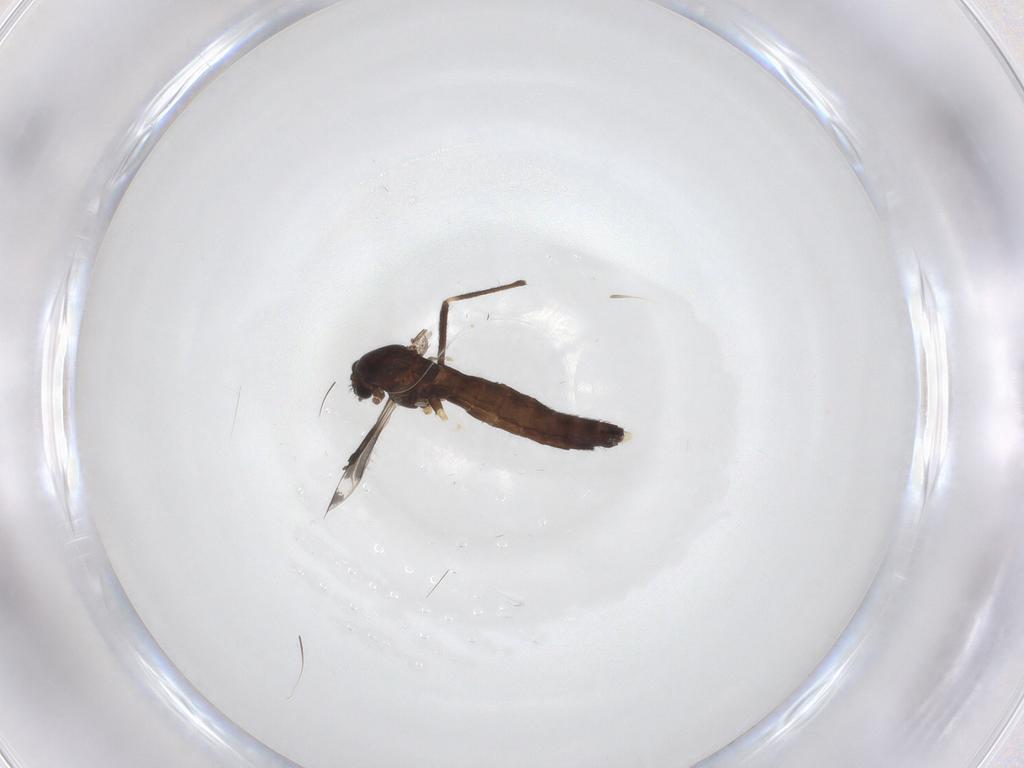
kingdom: Animalia
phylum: Arthropoda
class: Insecta
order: Diptera
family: Chironomidae
